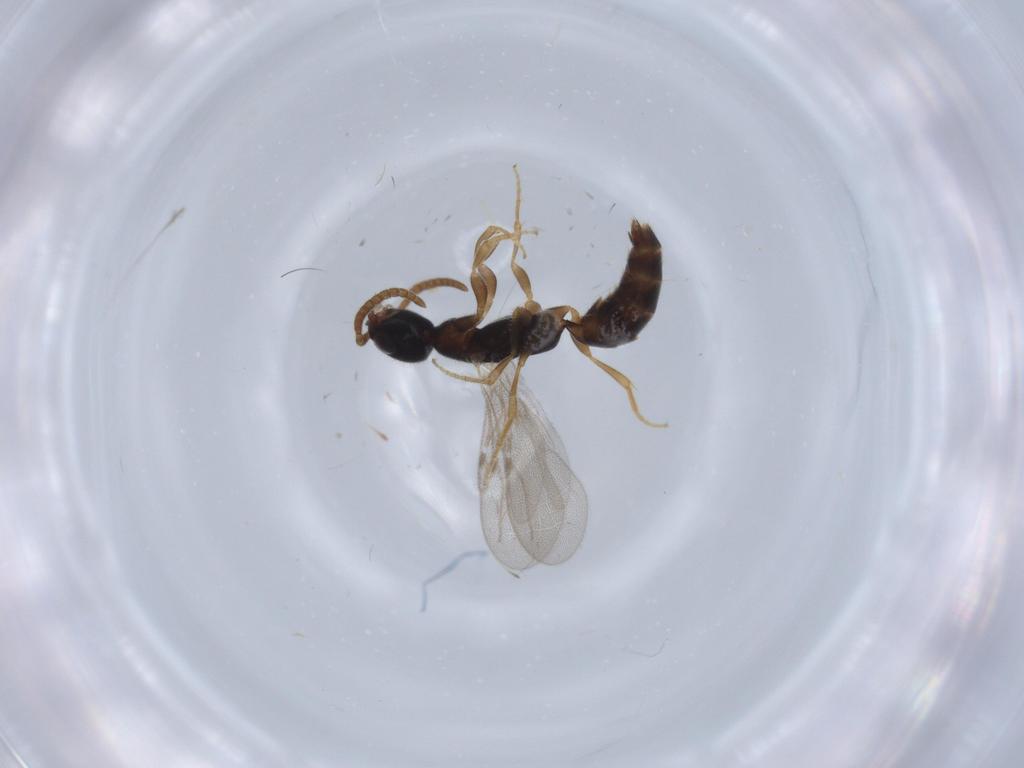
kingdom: Animalia
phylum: Arthropoda
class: Insecta
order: Hymenoptera
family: Bethylidae
